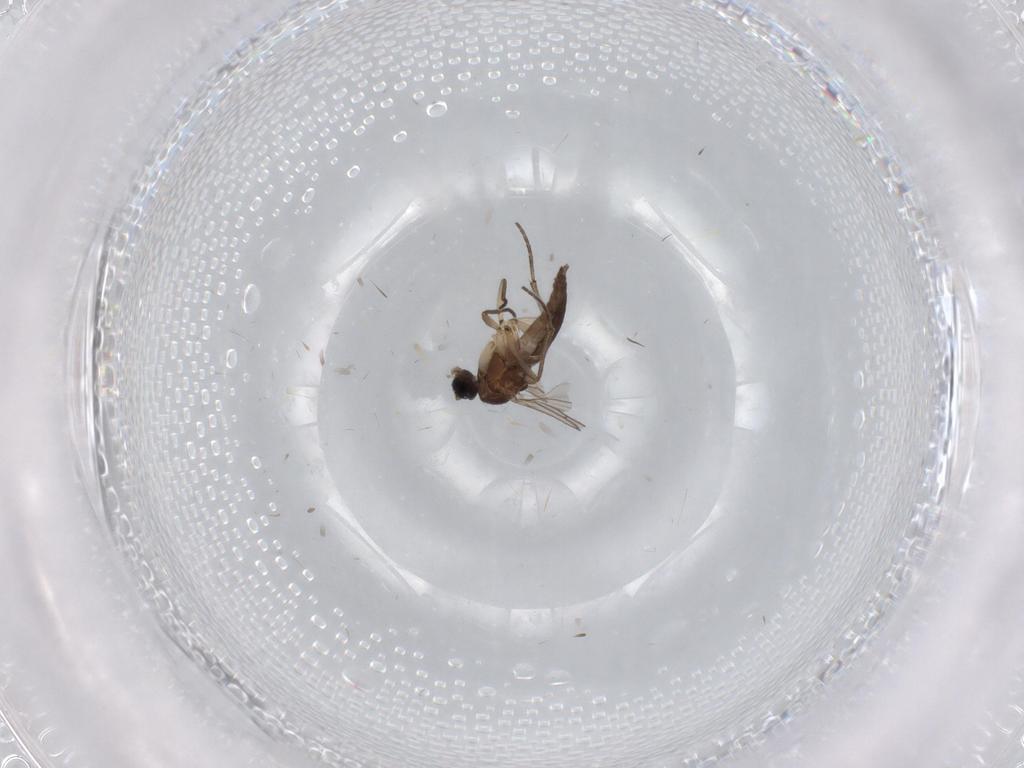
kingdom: Animalia
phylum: Arthropoda
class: Insecta
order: Diptera
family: Sciaridae
